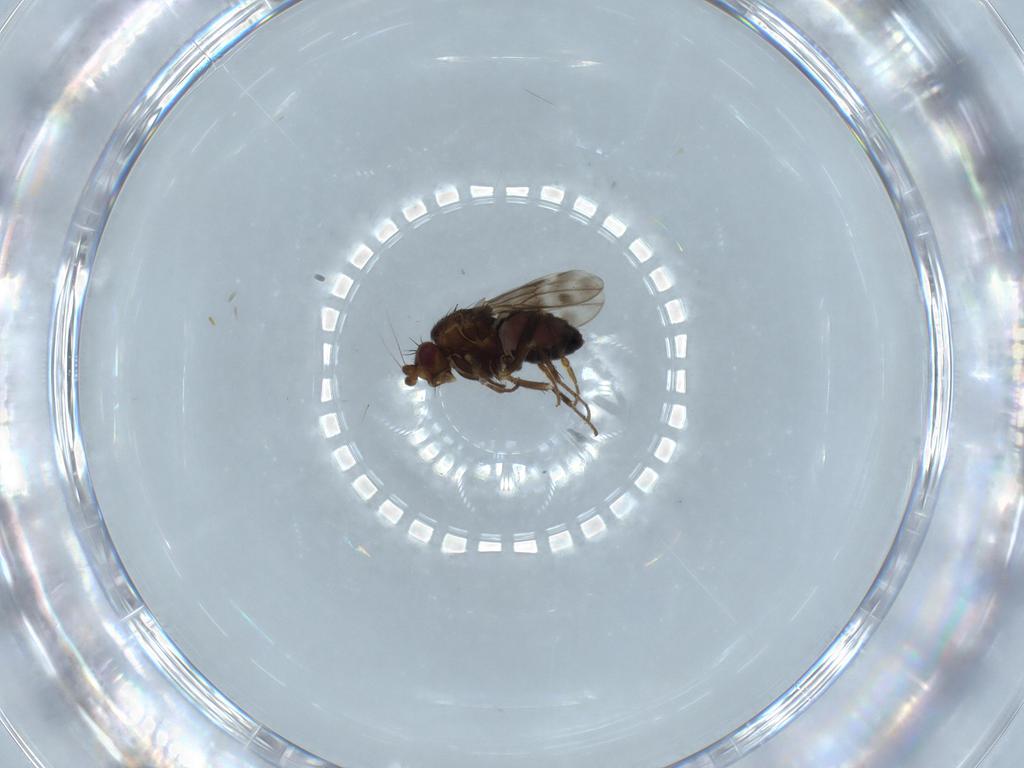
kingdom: Animalia
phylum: Arthropoda
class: Insecta
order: Diptera
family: Sphaeroceridae
